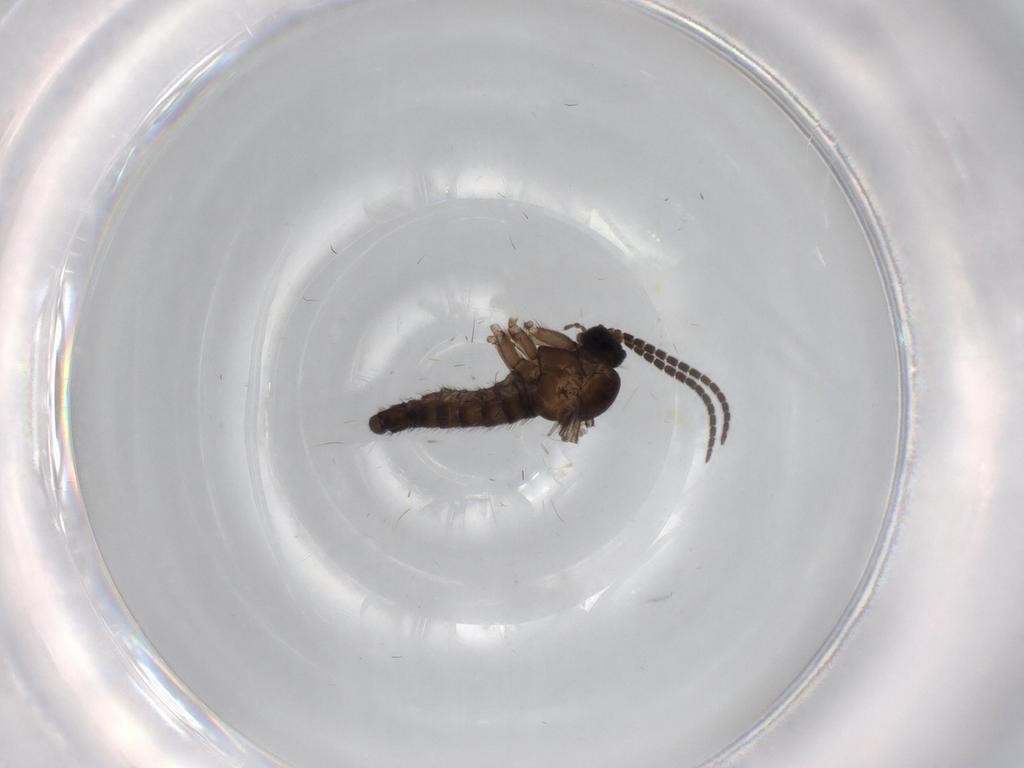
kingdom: Animalia
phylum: Arthropoda
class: Insecta
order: Diptera
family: Sciaridae
